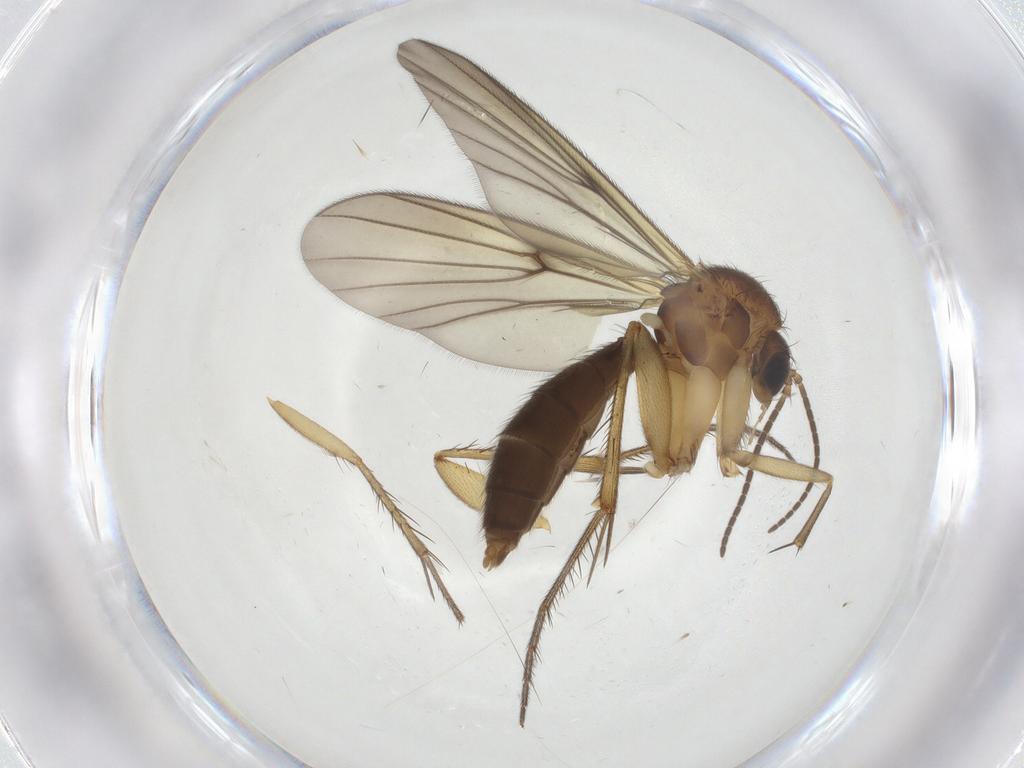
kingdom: Animalia
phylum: Arthropoda
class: Insecta
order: Diptera
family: Mycetophilidae
